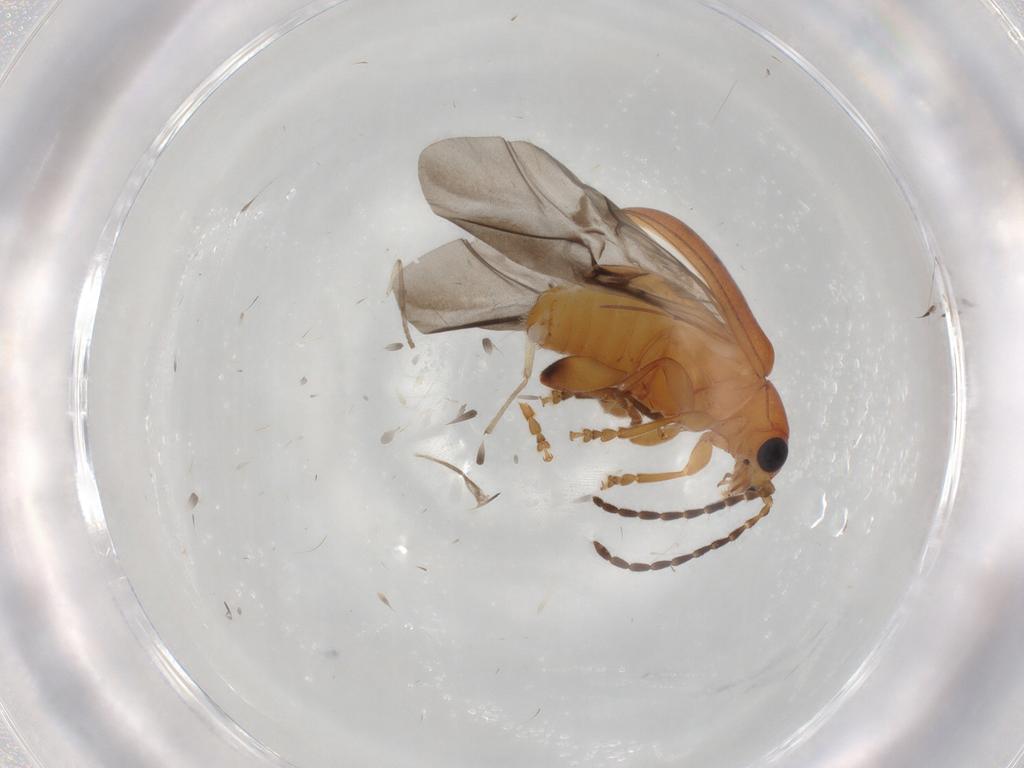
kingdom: Animalia
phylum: Arthropoda
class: Insecta
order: Coleoptera
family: Chrysomelidae
